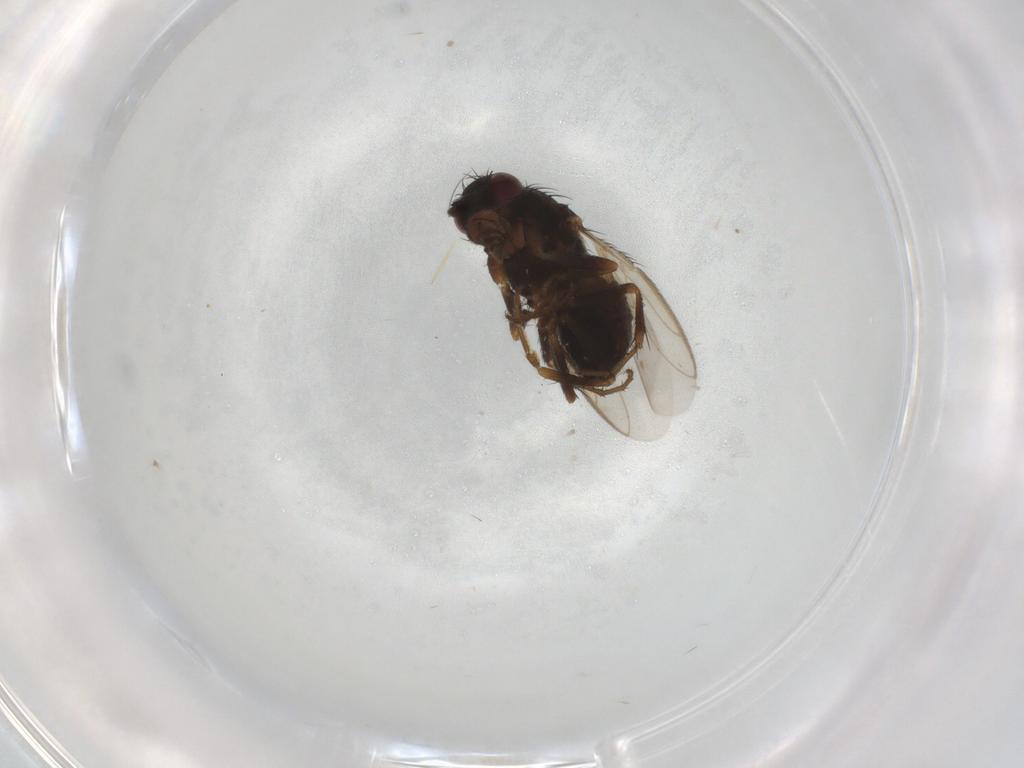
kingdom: Animalia
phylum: Arthropoda
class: Insecta
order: Diptera
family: Sphaeroceridae
